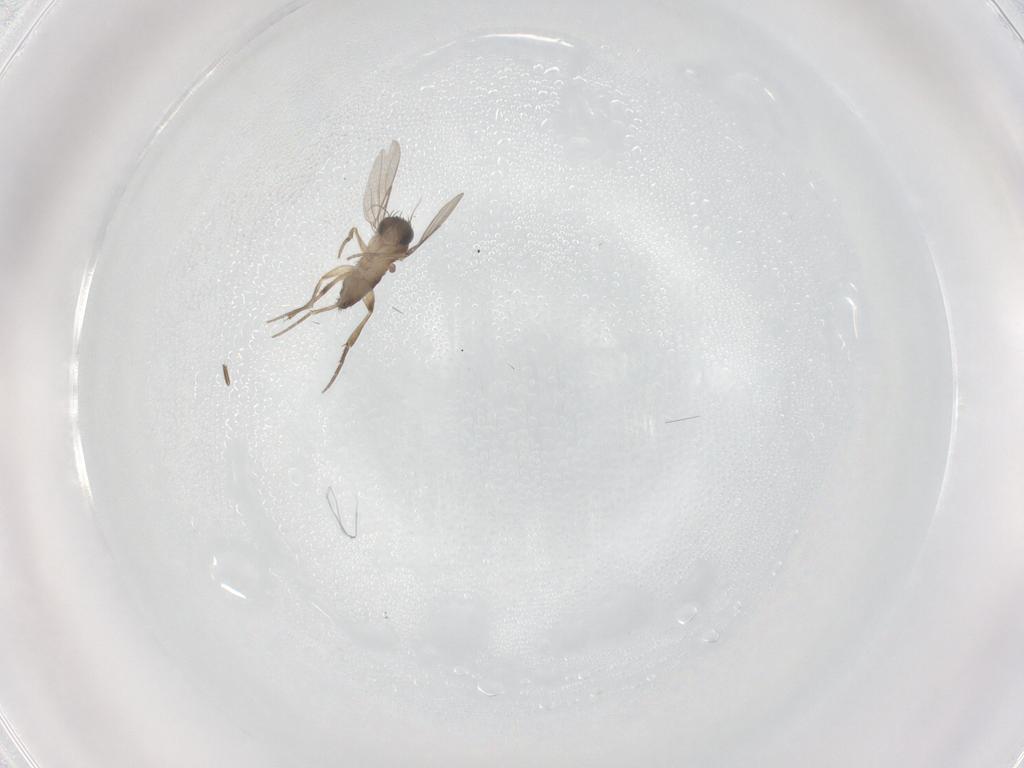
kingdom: Animalia
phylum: Arthropoda
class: Insecta
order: Diptera
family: Phoridae
